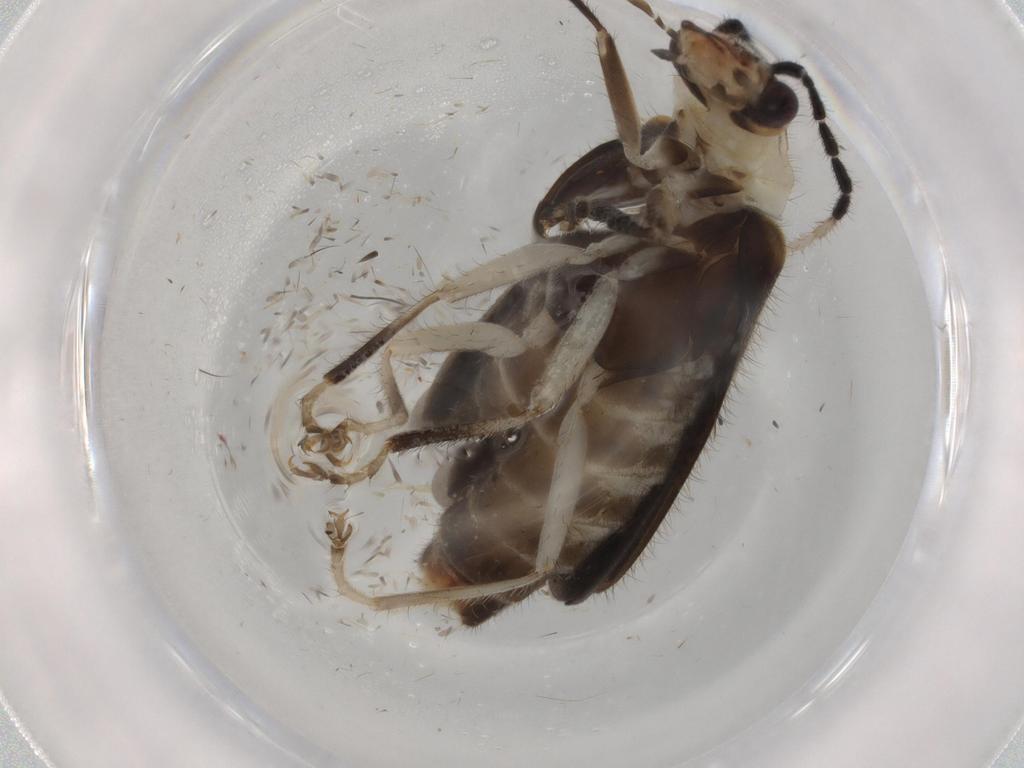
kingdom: Animalia
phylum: Arthropoda
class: Insecta
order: Coleoptera
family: Cantharidae
